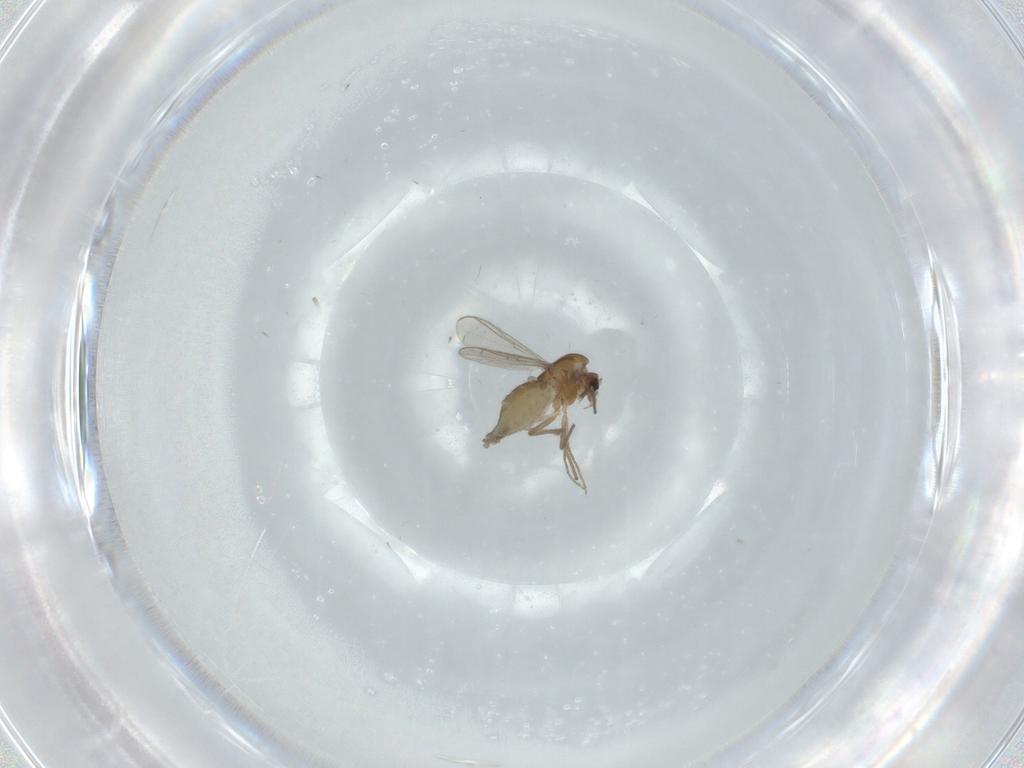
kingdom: Animalia
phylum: Arthropoda
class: Insecta
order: Diptera
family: Chironomidae
